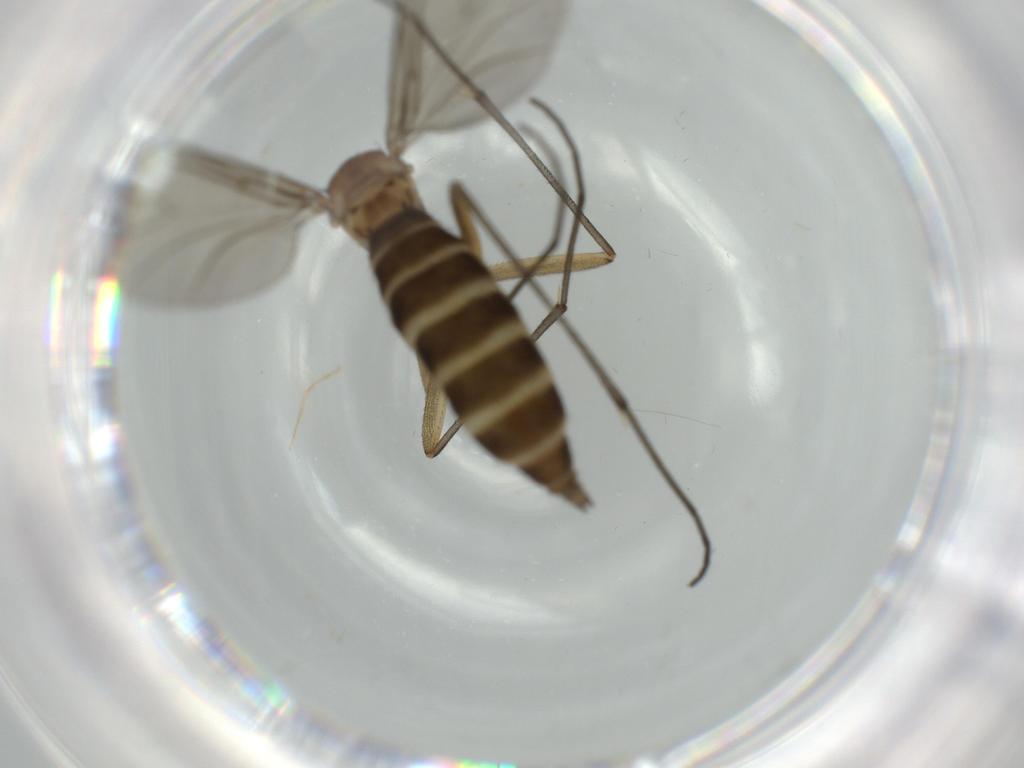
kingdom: Animalia
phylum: Arthropoda
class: Insecta
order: Diptera
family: Sciaridae
